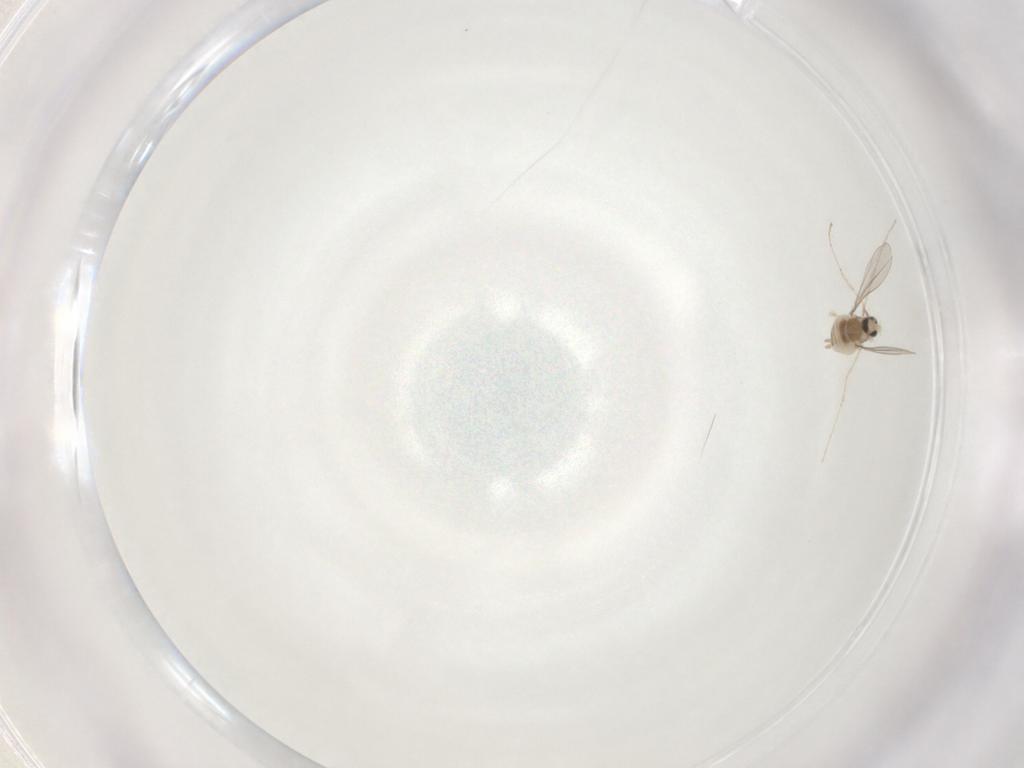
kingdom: Animalia
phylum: Arthropoda
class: Insecta
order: Diptera
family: Cecidomyiidae
